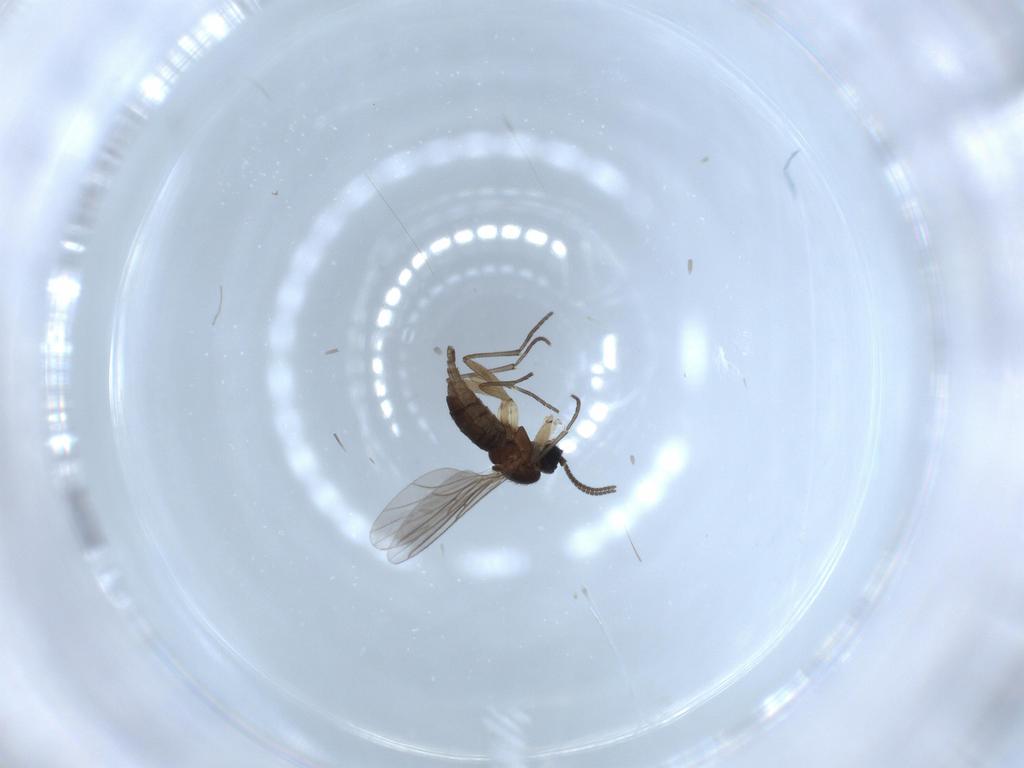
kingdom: Animalia
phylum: Arthropoda
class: Insecta
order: Diptera
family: Sciaridae
